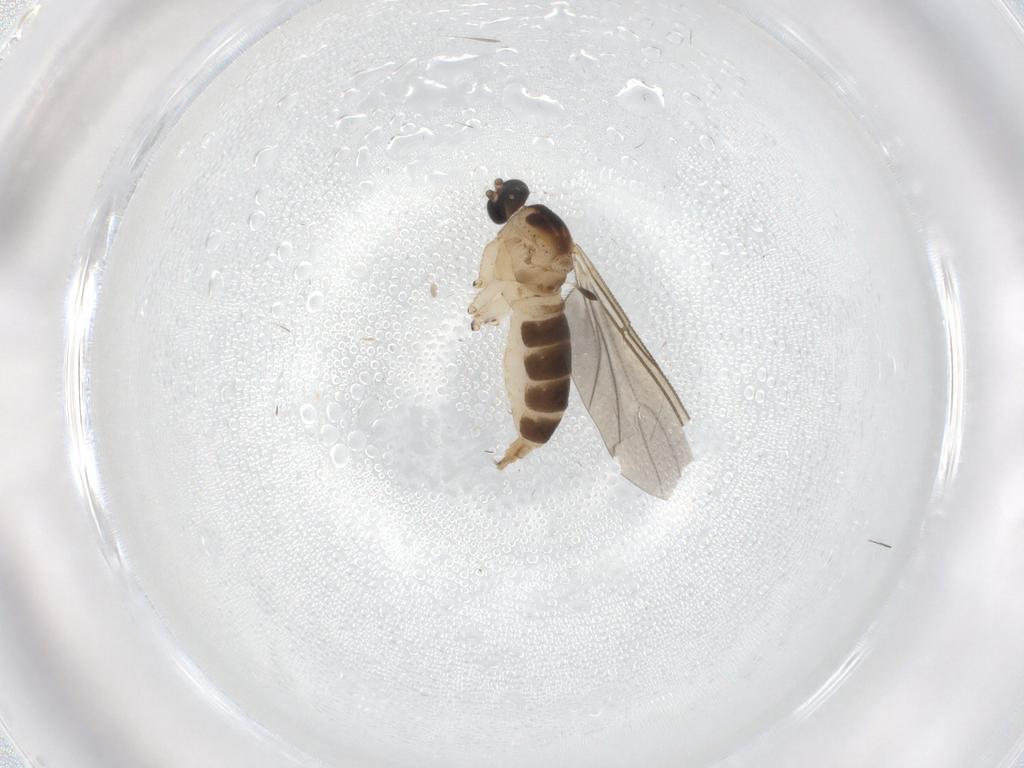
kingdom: Animalia
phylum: Arthropoda
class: Insecta
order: Diptera
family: Sciaridae
